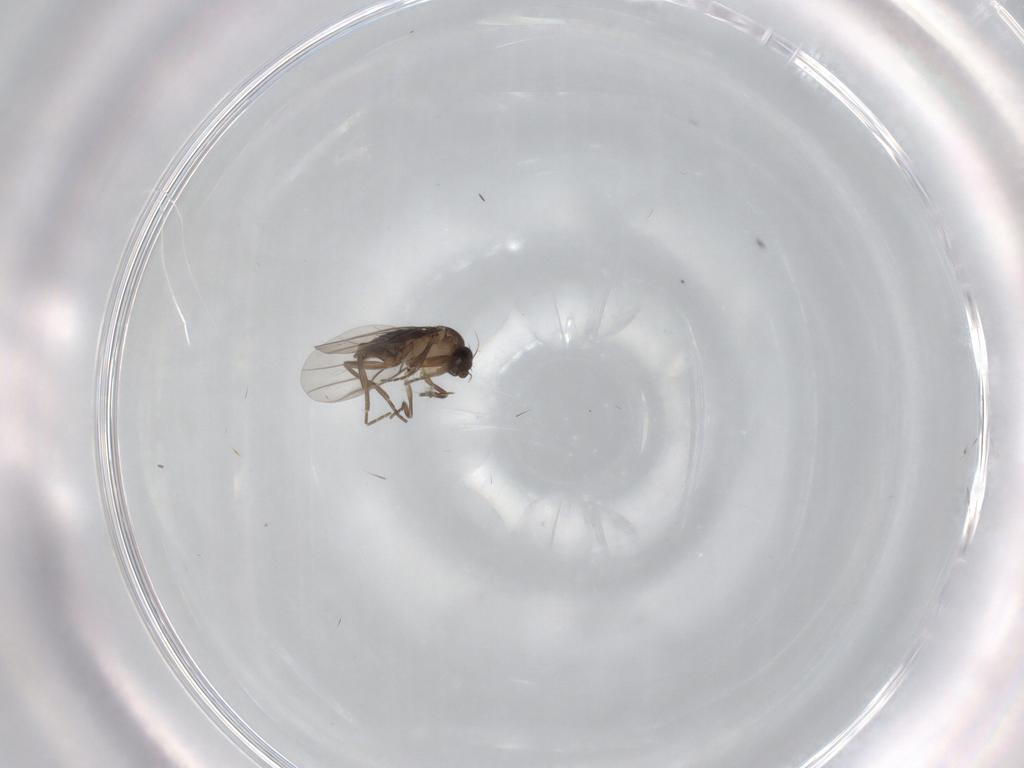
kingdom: Animalia
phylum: Arthropoda
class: Insecta
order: Diptera
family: Cecidomyiidae
